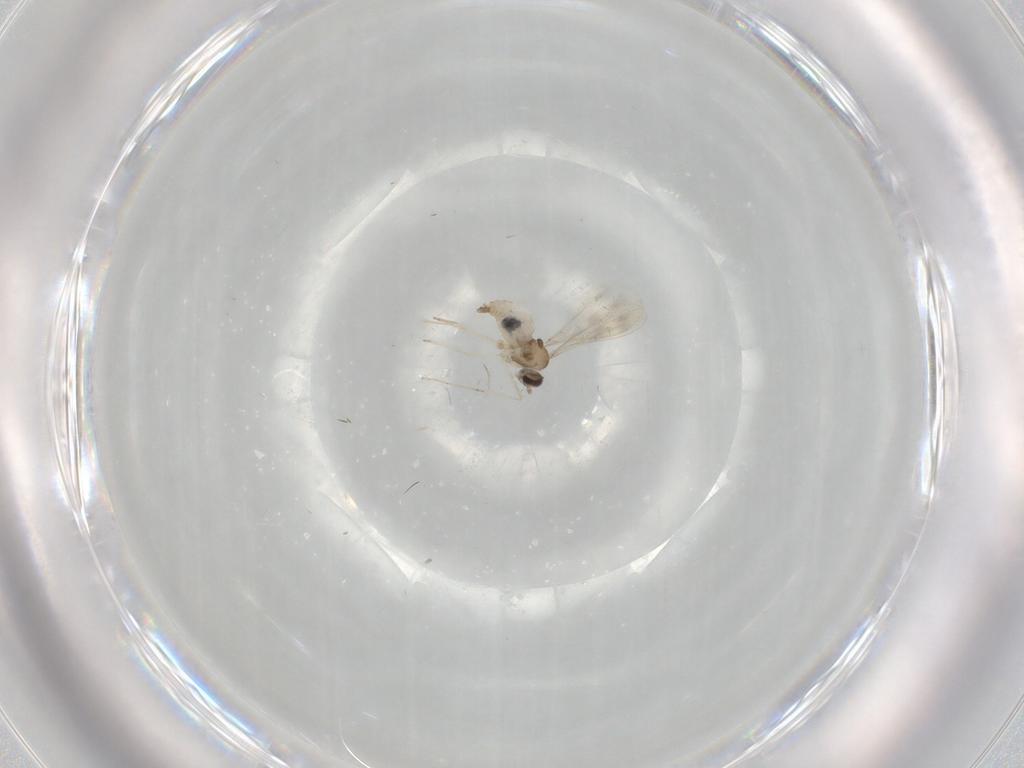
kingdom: Animalia
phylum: Arthropoda
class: Insecta
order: Diptera
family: Cecidomyiidae
